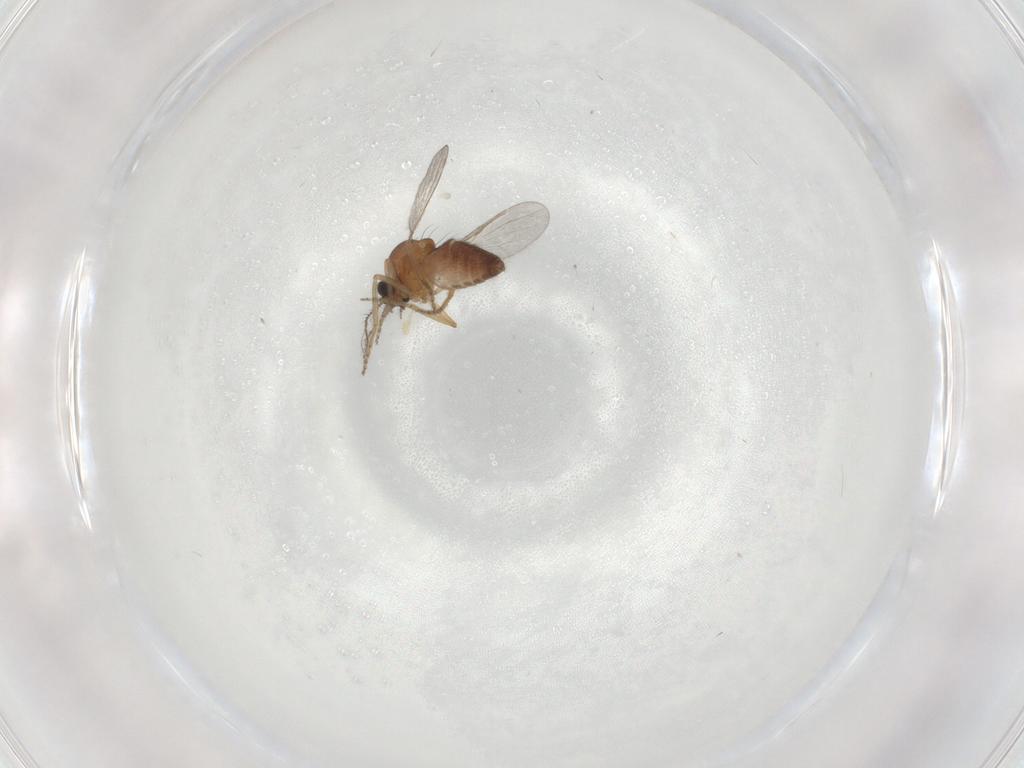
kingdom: Animalia
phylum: Arthropoda
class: Insecta
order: Diptera
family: Ceratopogonidae
